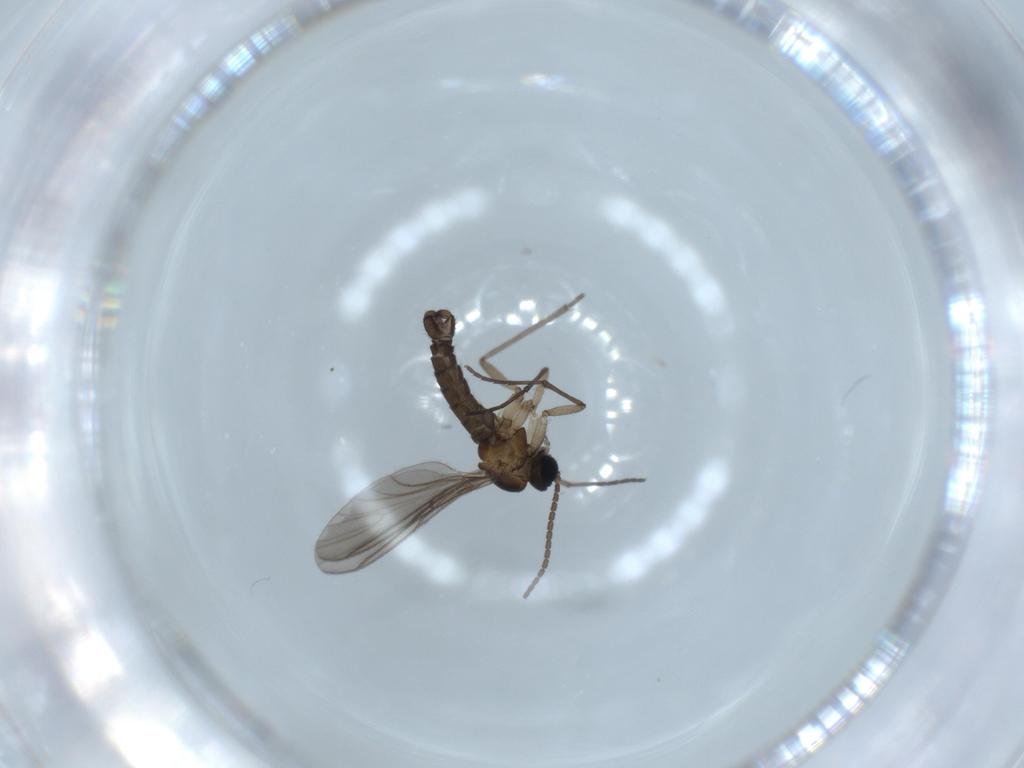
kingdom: Animalia
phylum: Arthropoda
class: Insecta
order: Diptera
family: Sciaridae
